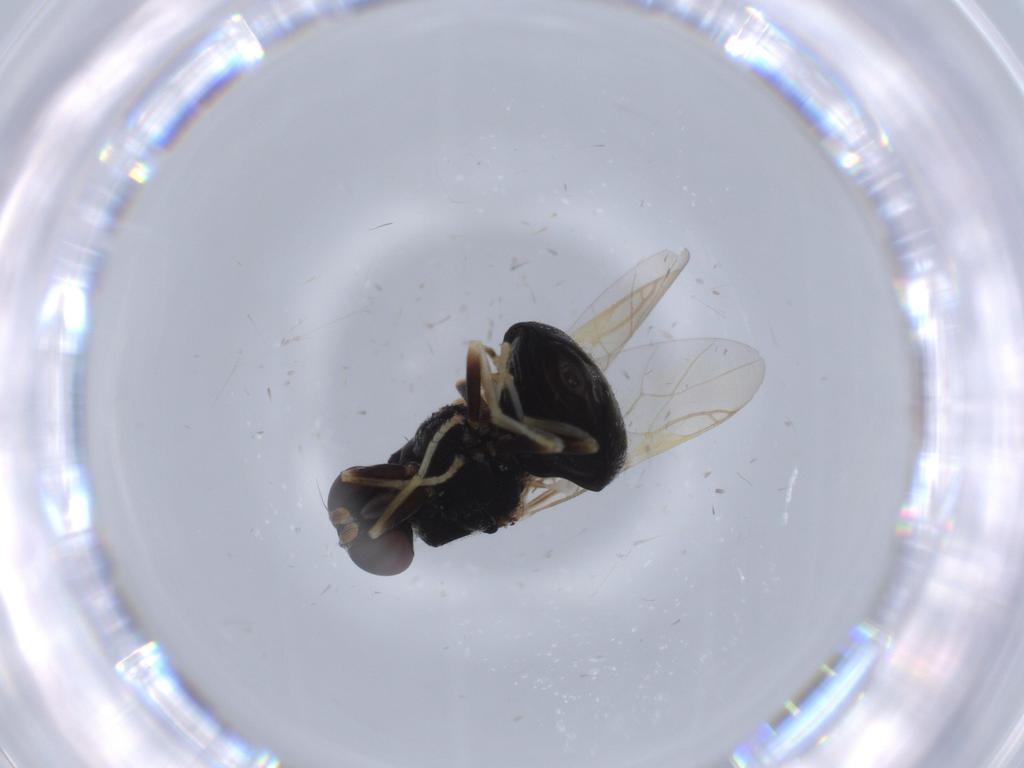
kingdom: Animalia
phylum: Arthropoda
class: Insecta
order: Diptera
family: Stratiomyidae
